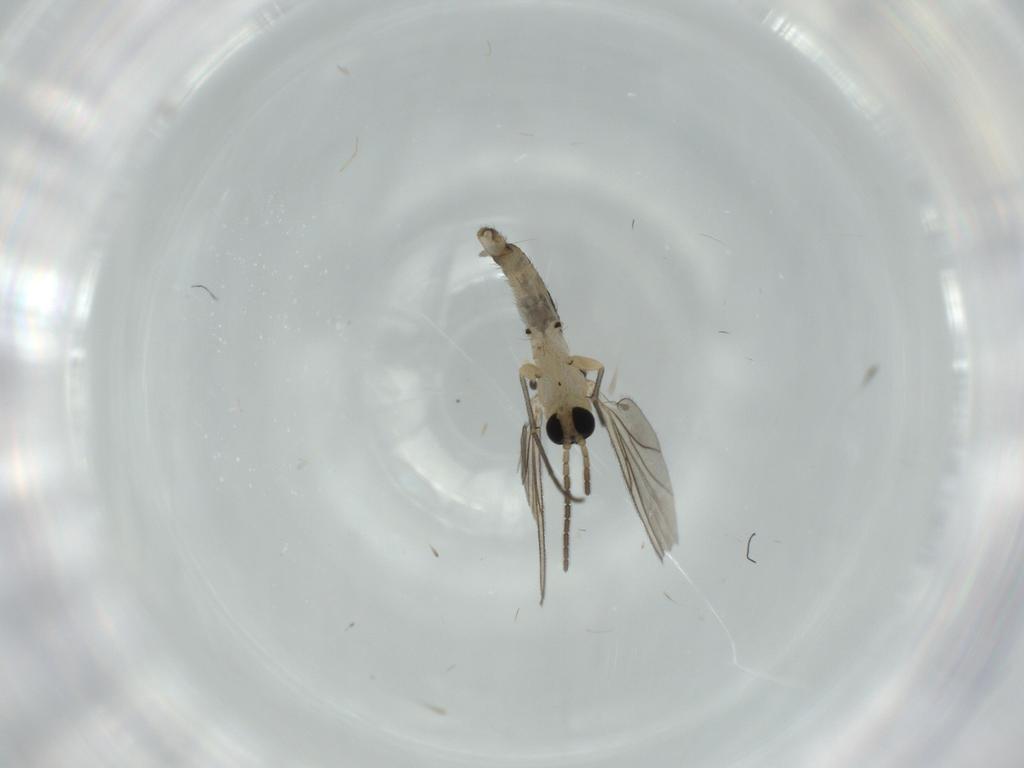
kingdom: Animalia
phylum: Arthropoda
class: Insecta
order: Diptera
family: Sciaridae
